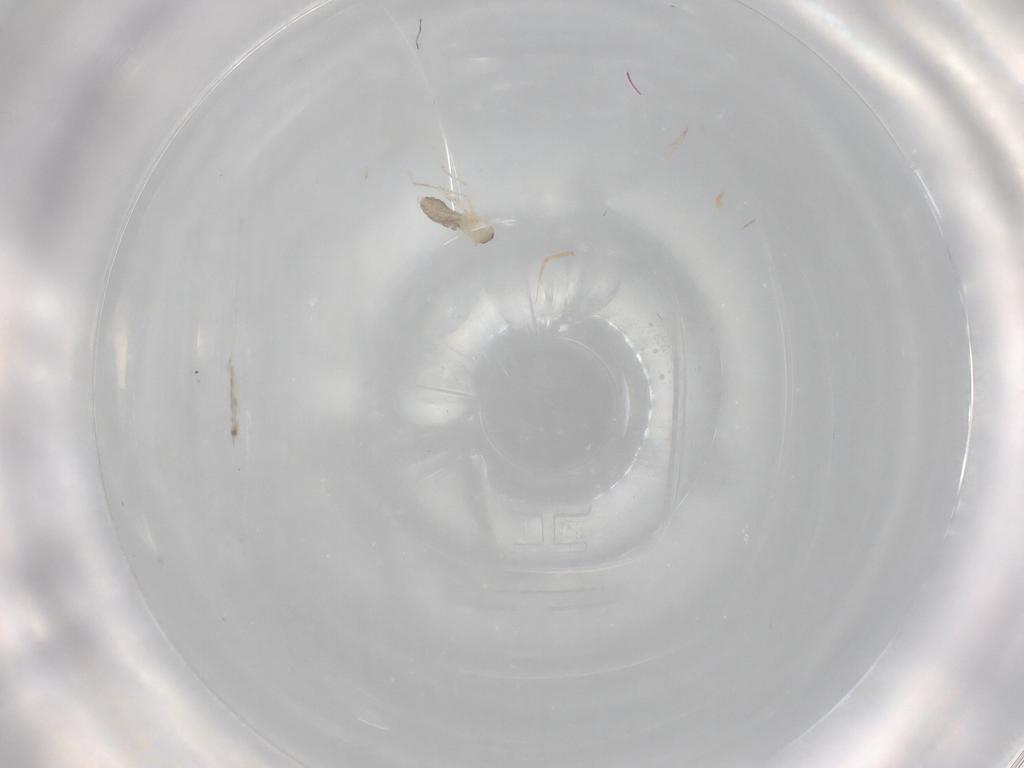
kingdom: Animalia
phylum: Arthropoda
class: Insecta
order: Diptera
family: Cecidomyiidae
